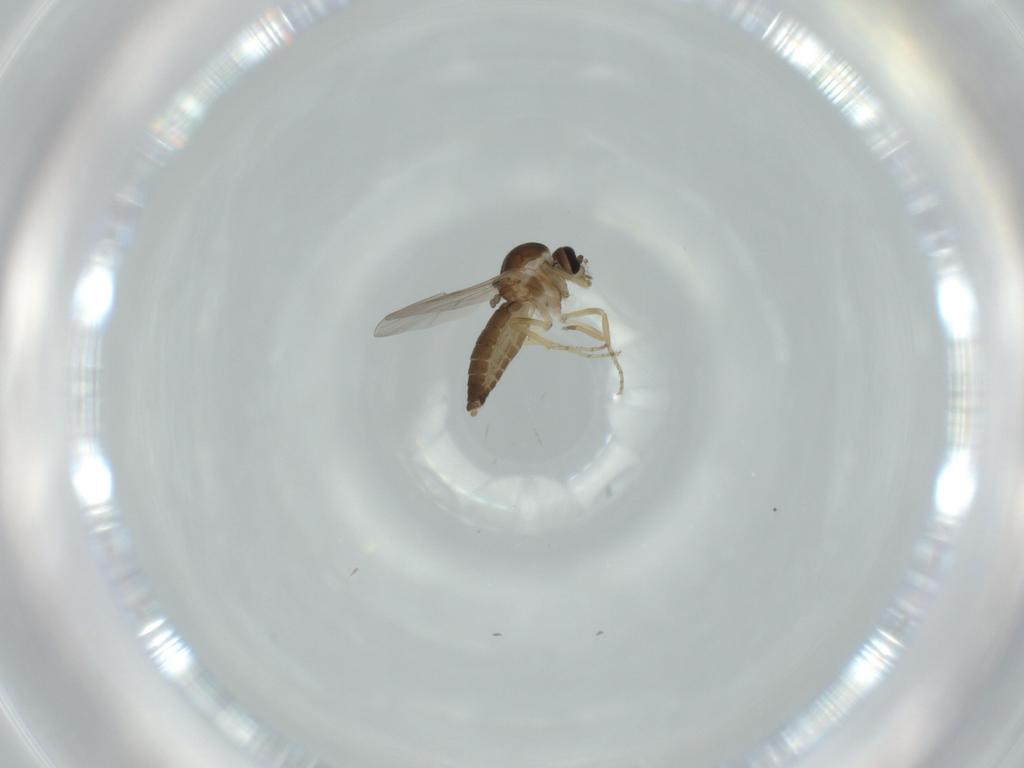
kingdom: Animalia
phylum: Arthropoda
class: Insecta
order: Diptera
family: Ceratopogonidae
